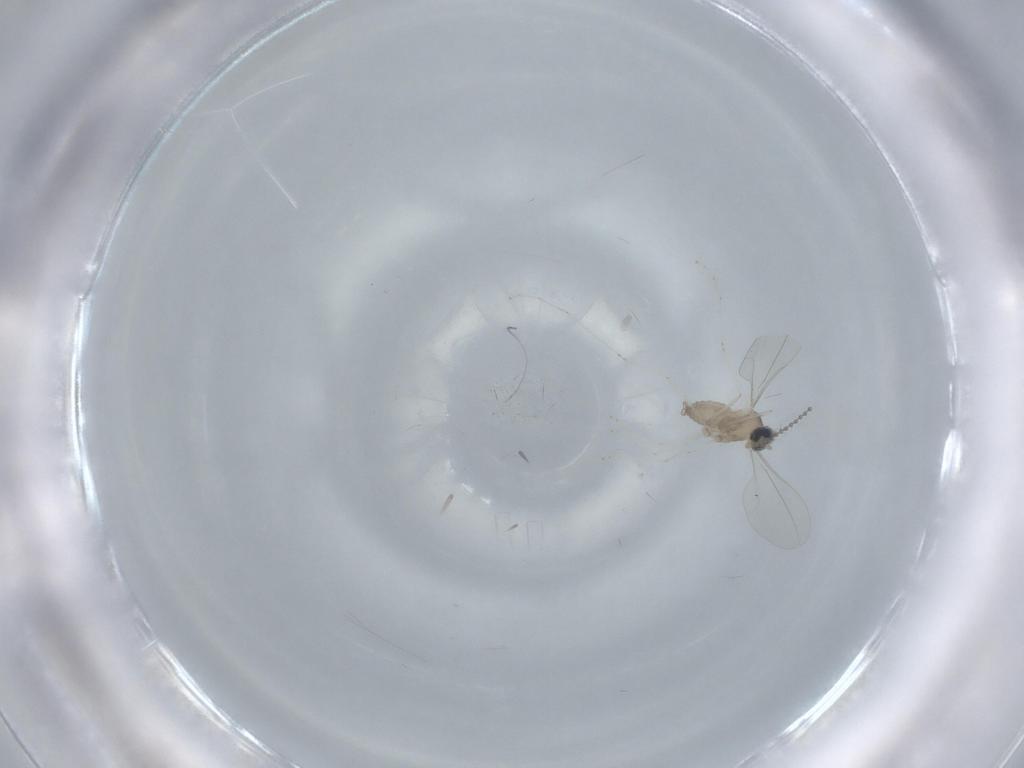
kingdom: Animalia
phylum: Arthropoda
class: Insecta
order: Diptera
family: Cecidomyiidae
